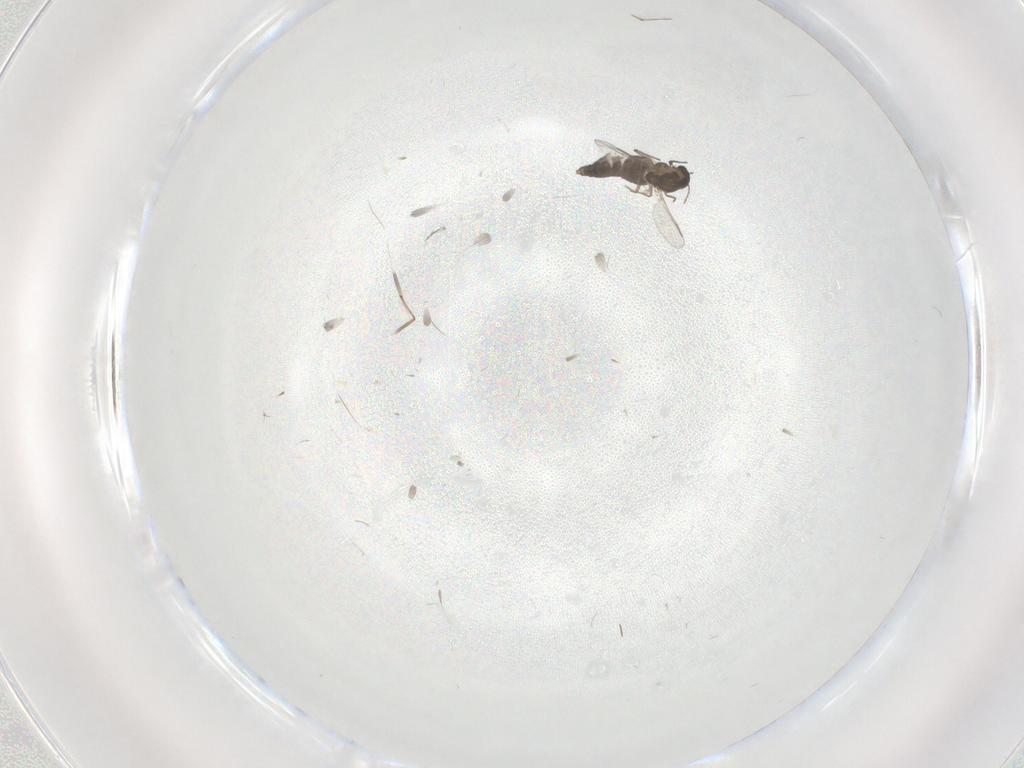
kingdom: Animalia
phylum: Arthropoda
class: Insecta
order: Diptera
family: Chironomidae
